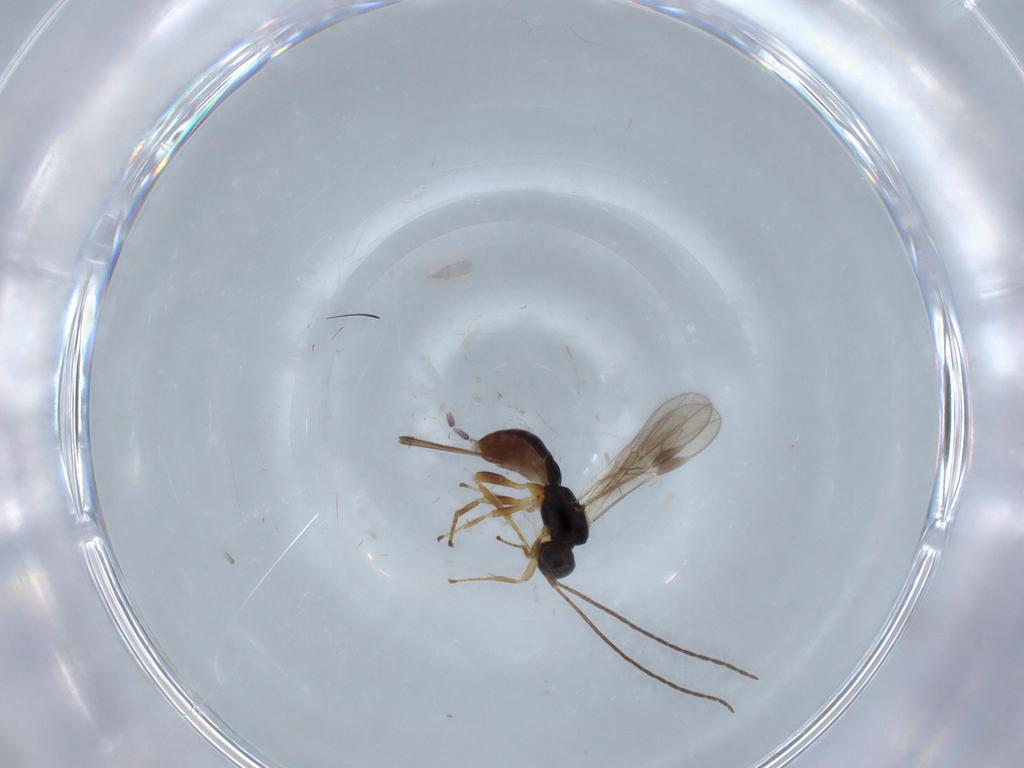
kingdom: Animalia
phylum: Arthropoda
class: Insecta
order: Hymenoptera
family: Braconidae
